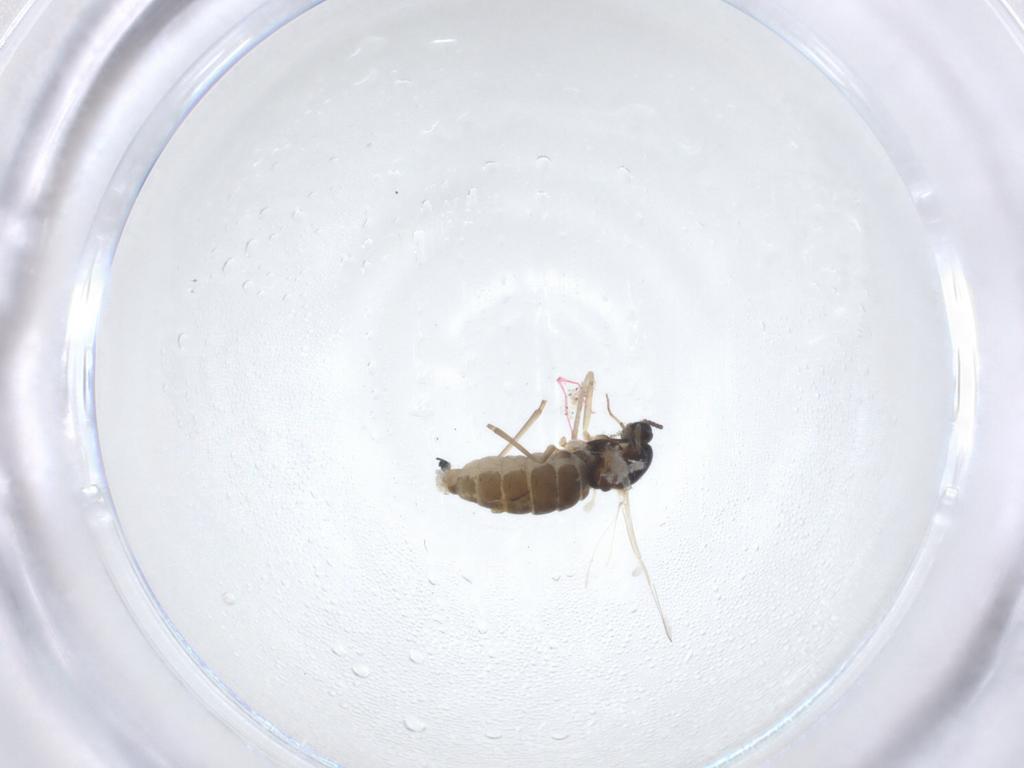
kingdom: Animalia
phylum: Arthropoda
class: Insecta
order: Diptera
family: Cecidomyiidae
